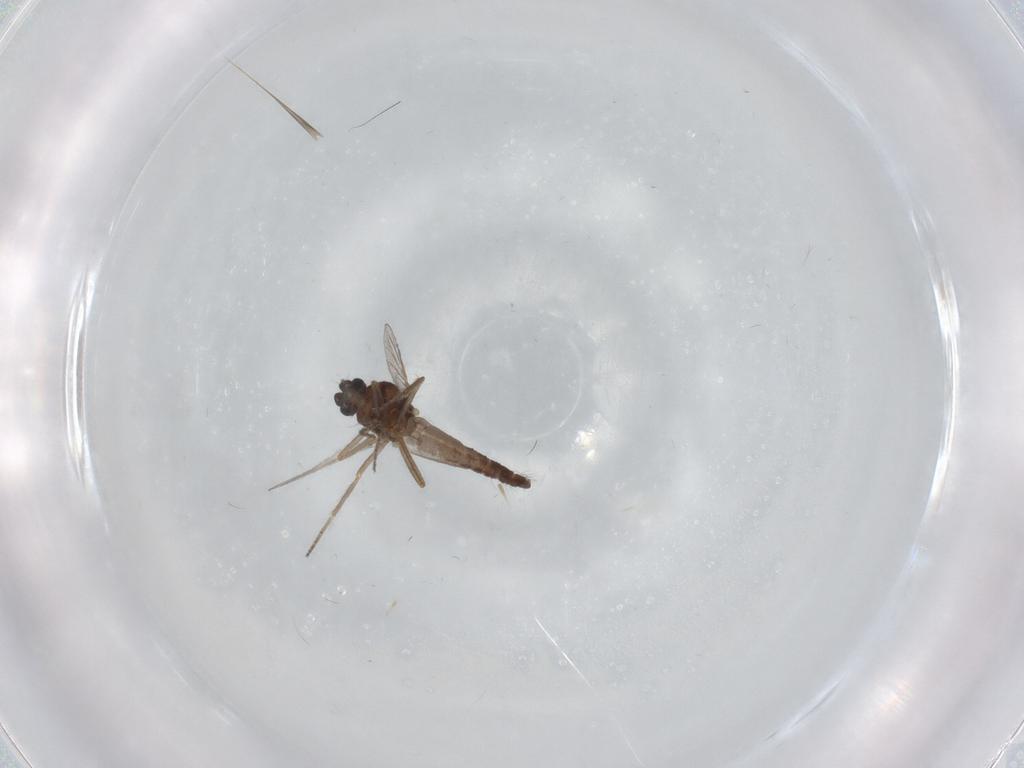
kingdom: Animalia
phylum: Arthropoda
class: Insecta
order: Diptera
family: Ceratopogonidae
